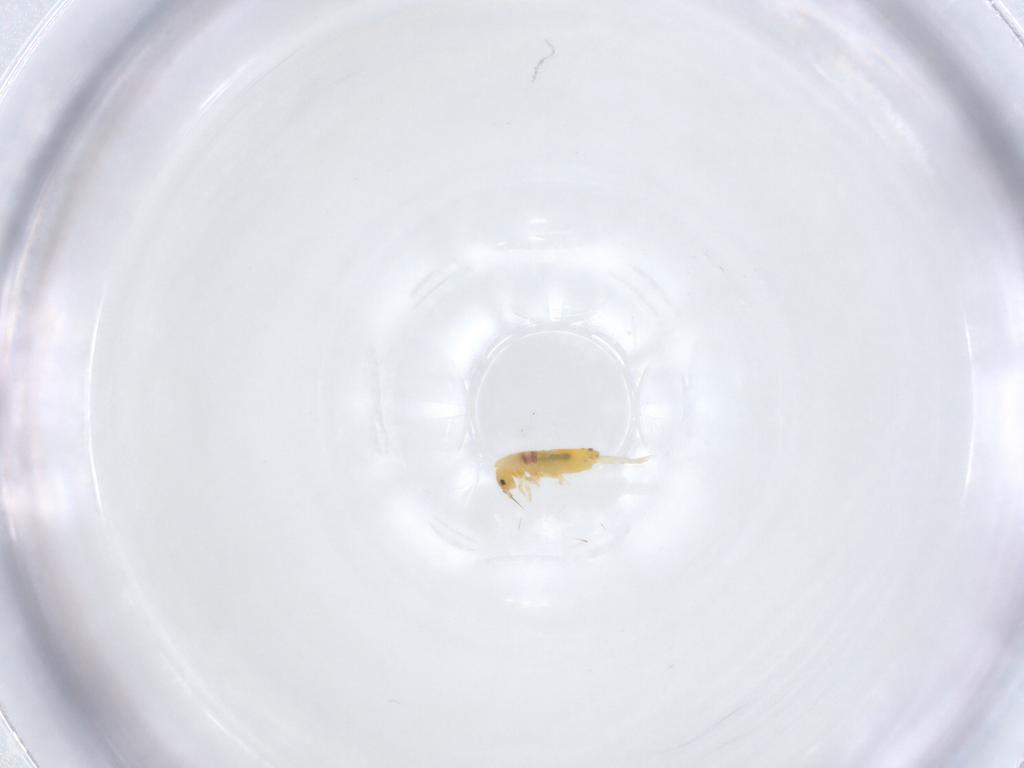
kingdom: Animalia
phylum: Arthropoda
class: Collembola
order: Entomobryomorpha
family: Entomobryidae
